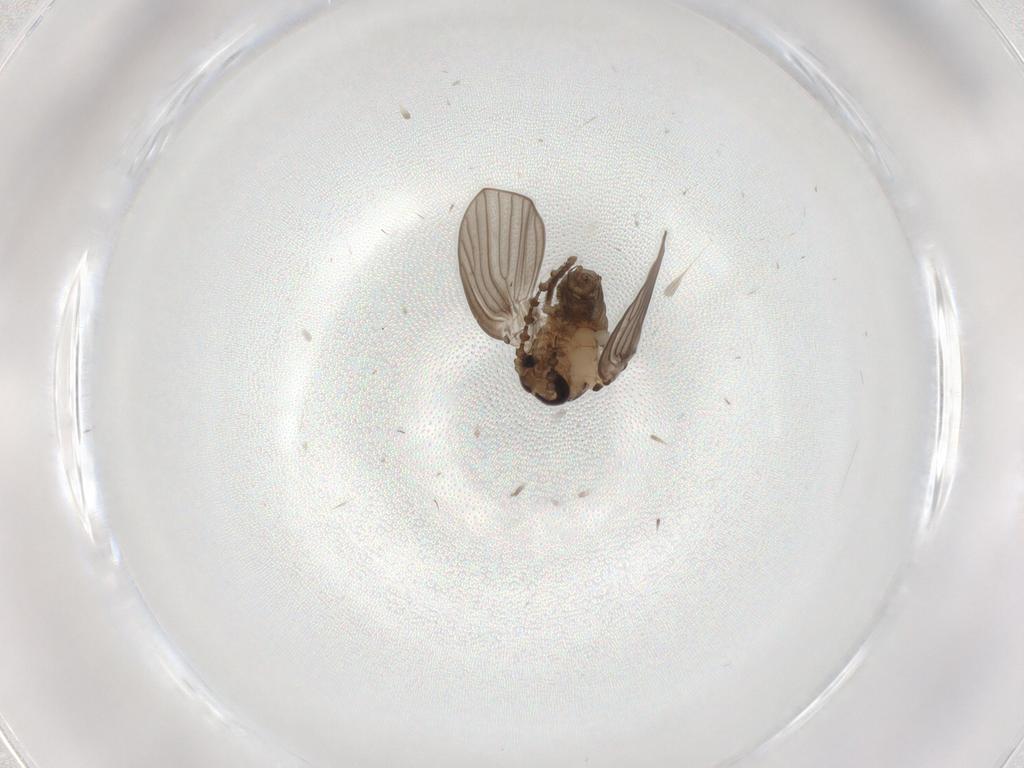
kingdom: Animalia
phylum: Arthropoda
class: Insecta
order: Diptera
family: Psychodidae
